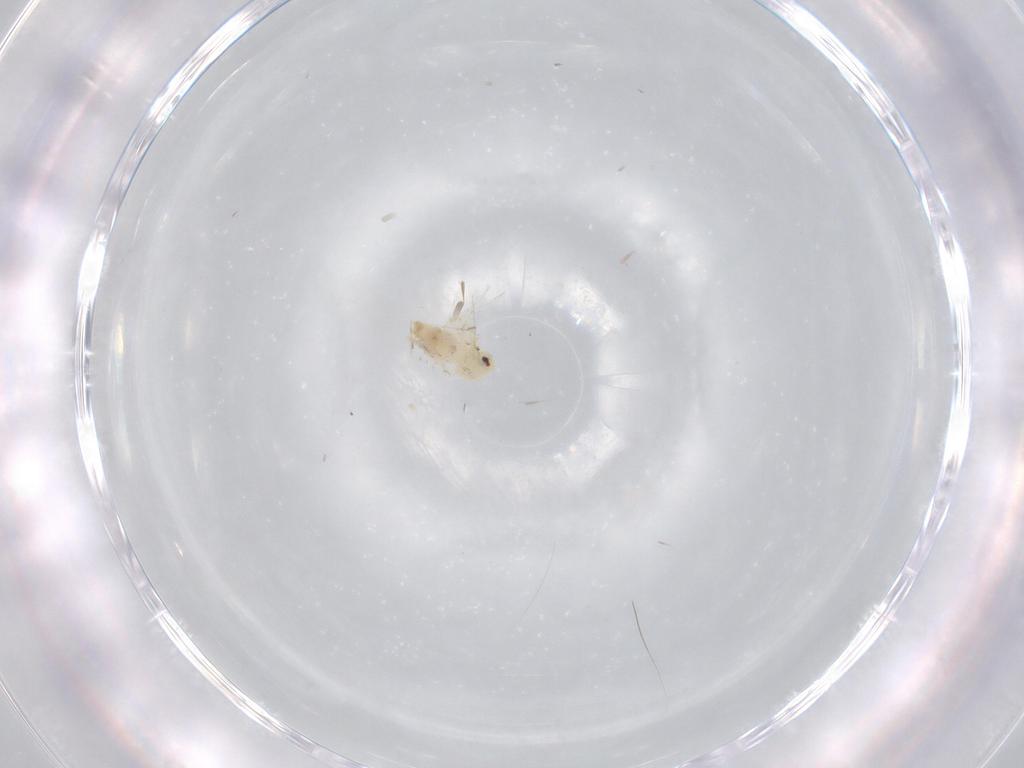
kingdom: Animalia
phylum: Arthropoda
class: Insecta
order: Hemiptera
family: Aleyrodidae
